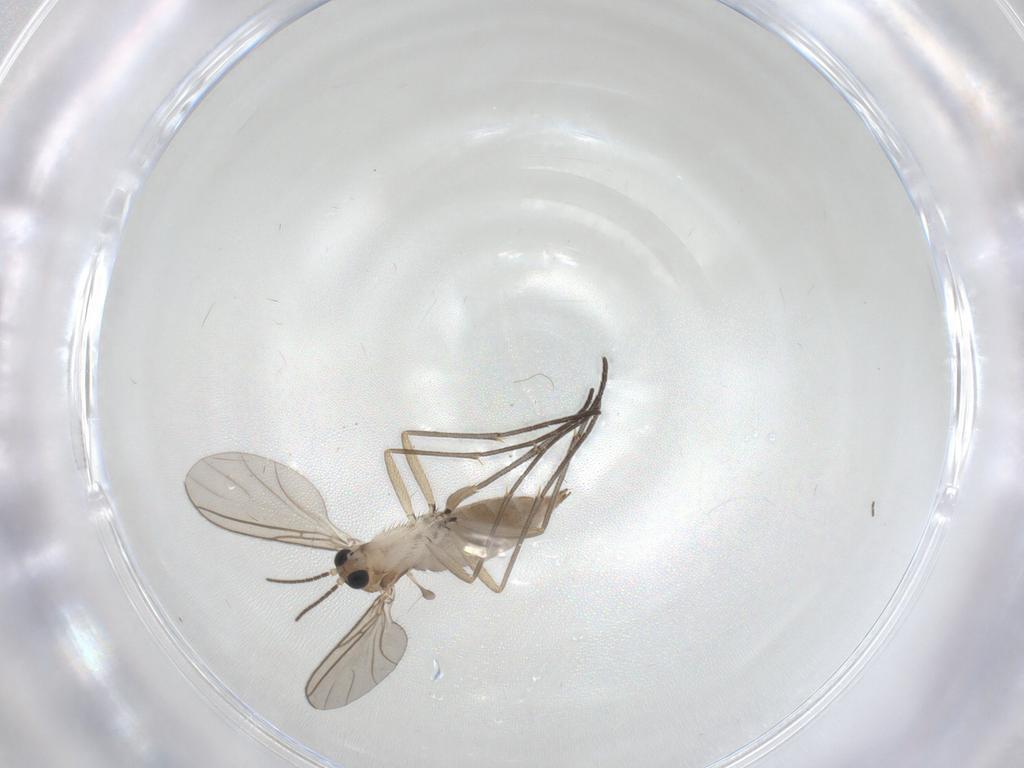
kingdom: Animalia
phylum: Arthropoda
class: Insecta
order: Diptera
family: Sciaridae
